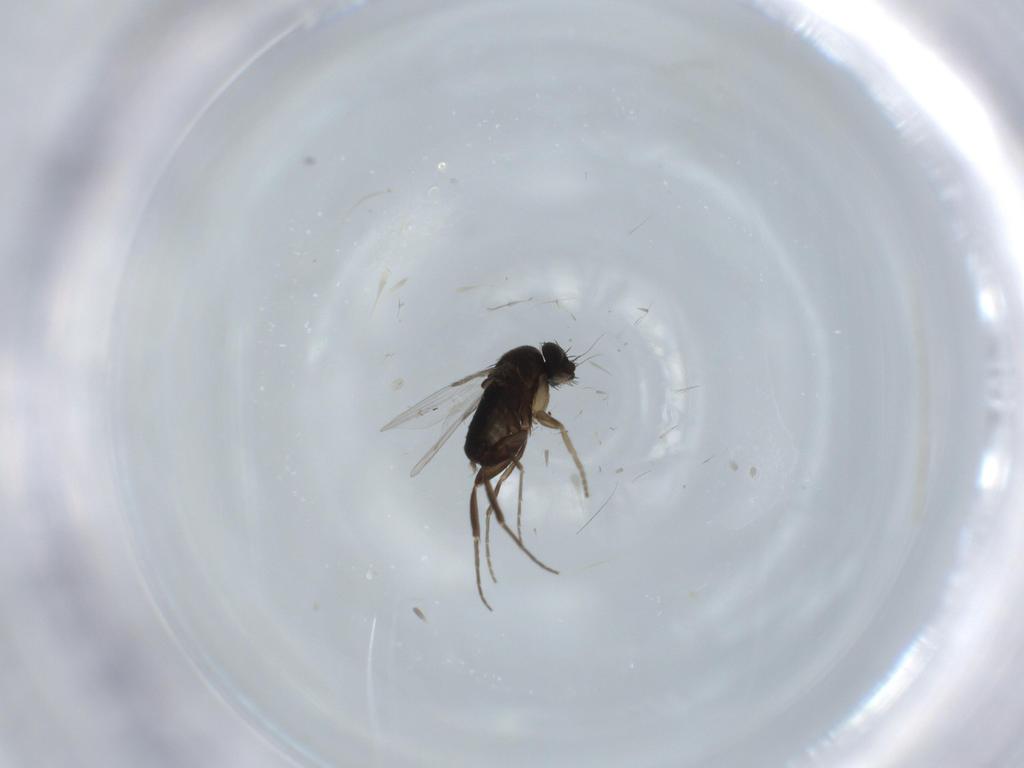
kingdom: Animalia
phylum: Arthropoda
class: Insecta
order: Diptera
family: Phoridae
